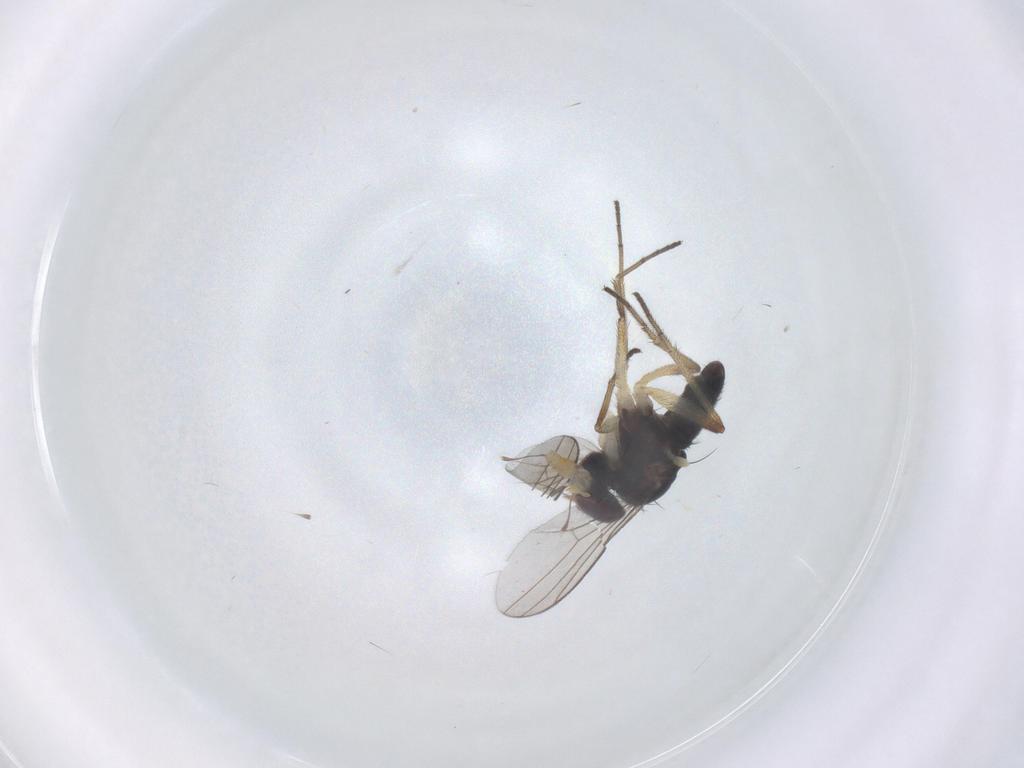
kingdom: Animalia
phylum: Arthropoda
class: Insecta
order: Diptera
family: Dolichopodidae
